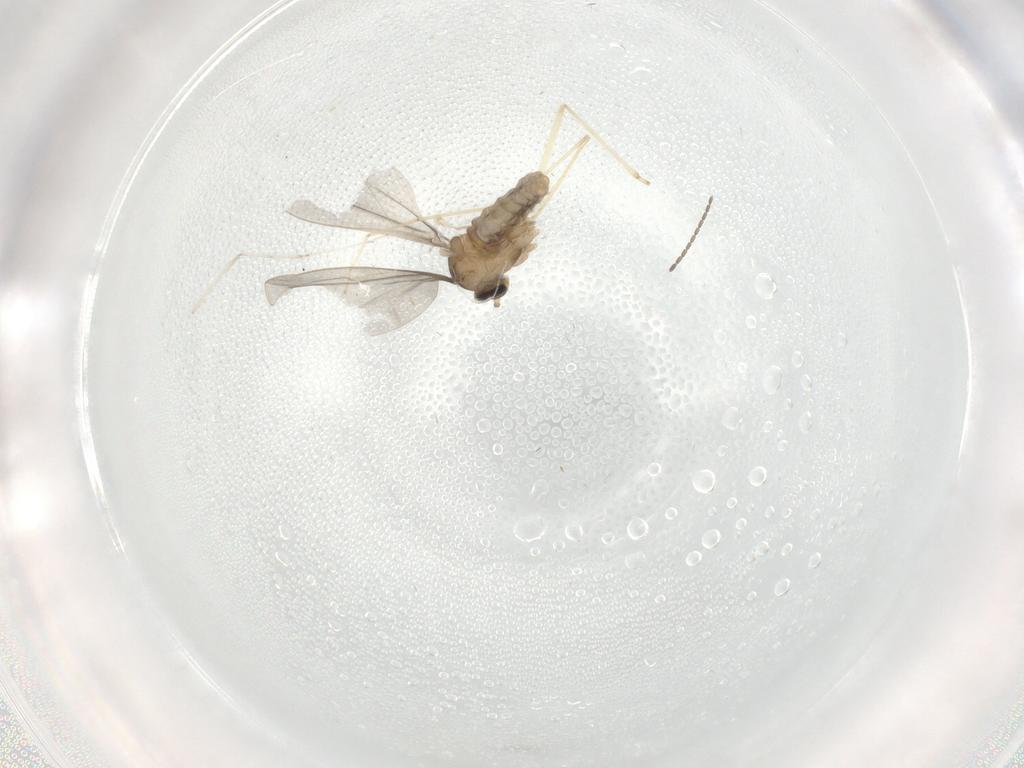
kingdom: Animalia
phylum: Arthropoda
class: Insecta
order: Diptera
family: Cecidomyiidae
